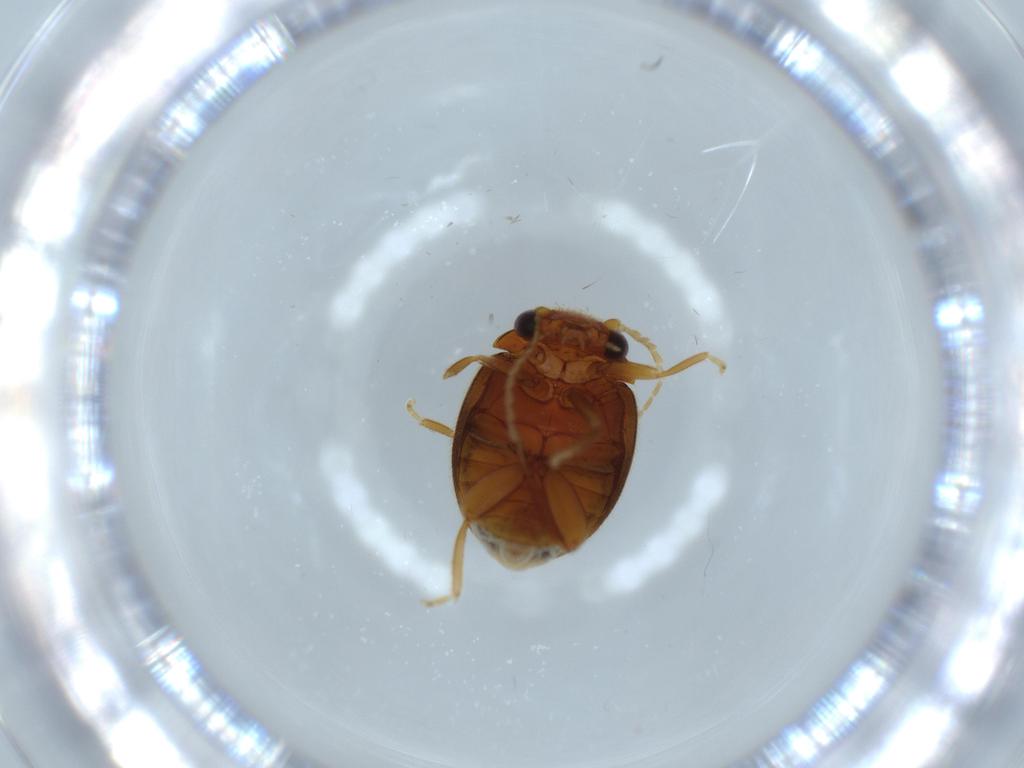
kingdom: Animalia
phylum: Arthropoda
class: Insecta
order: Coleoptera
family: Scirtidae
